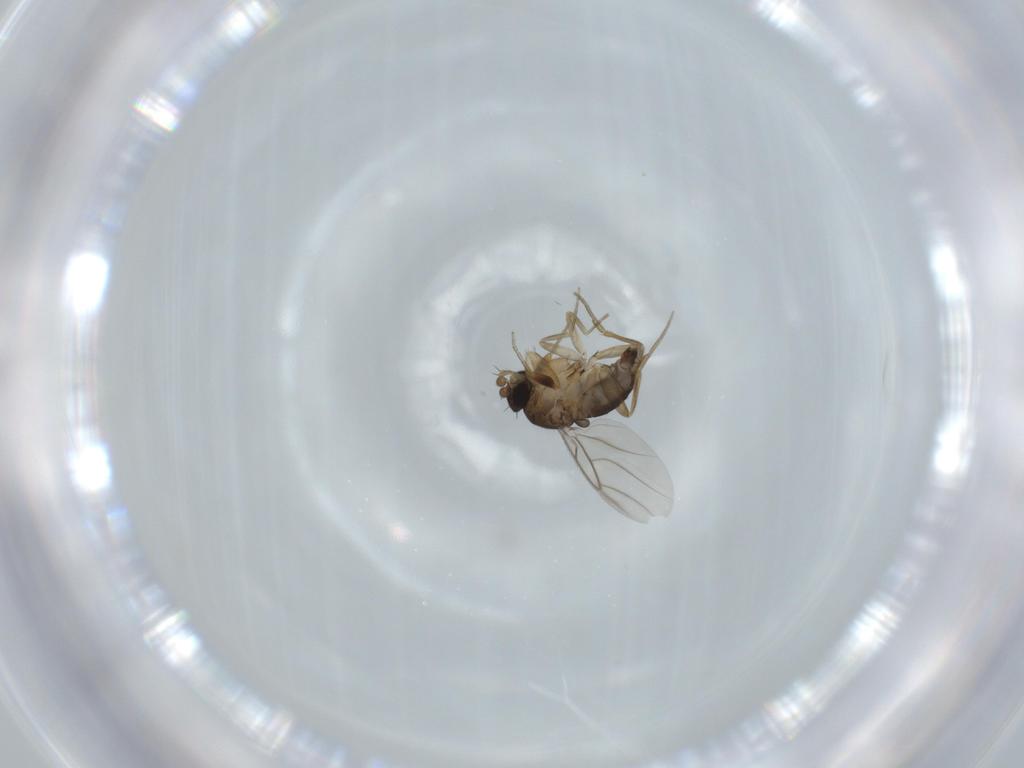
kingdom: Animalia
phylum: Arthropoda
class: Insecta
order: Diptera
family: Phoridae
